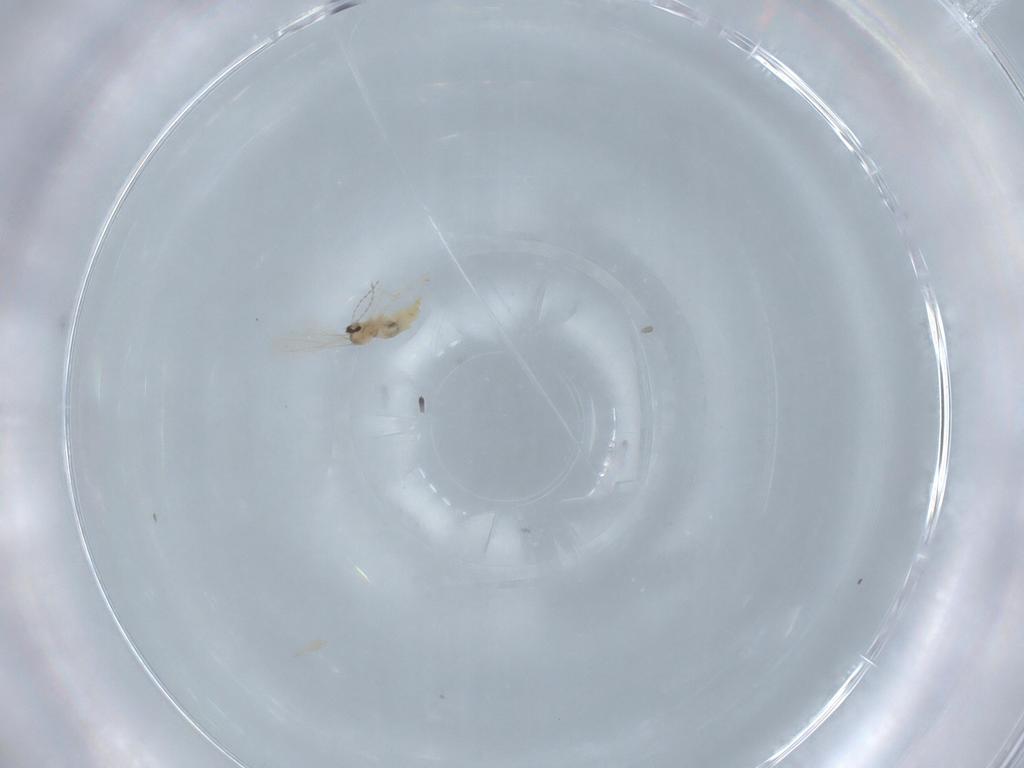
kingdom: Animalia
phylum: Arthropoda
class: Insecta
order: Diptera
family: Cecidomyiidae
